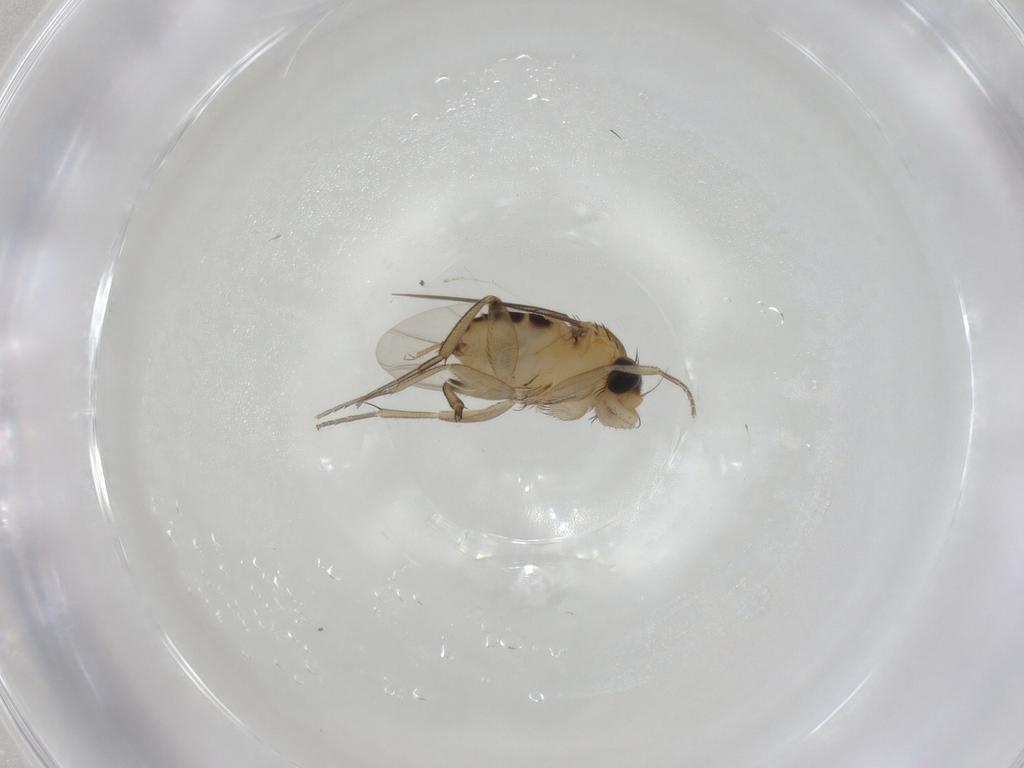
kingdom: Animalia
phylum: Arthropoda
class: Insecta
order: Diptera
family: Phoridae
